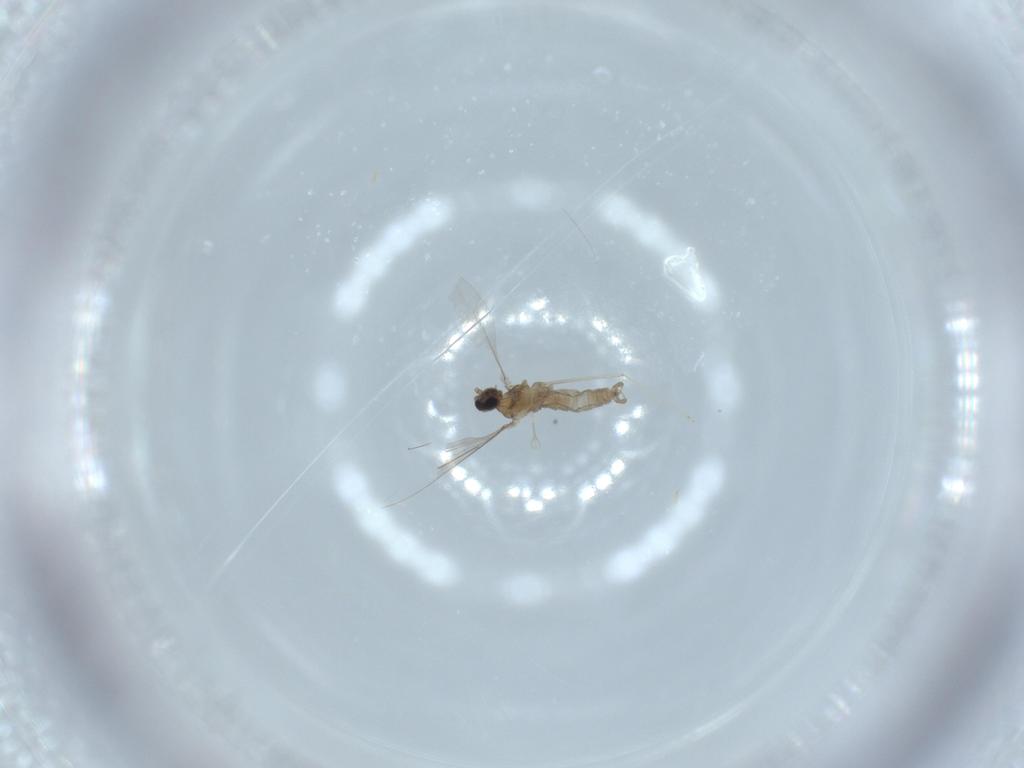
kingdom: Animalia
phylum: Arthropoda
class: Insecta
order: Diptera
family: Cecidomyiidae
